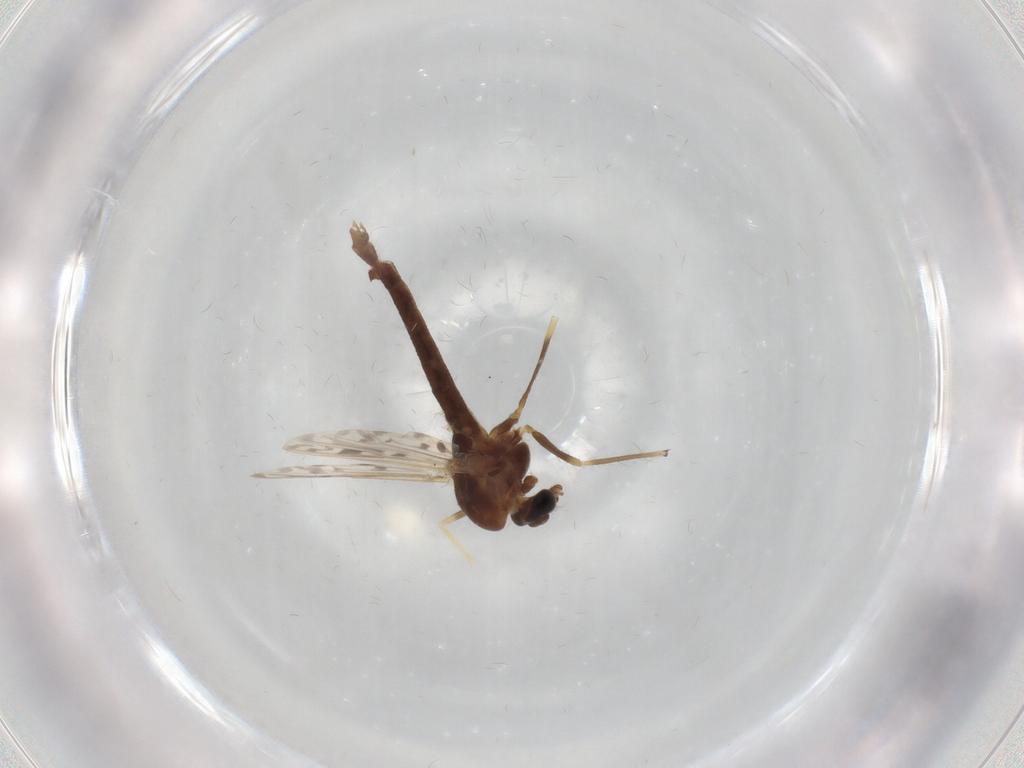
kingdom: Animalia
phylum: Arthropoda
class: Insecta
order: Diptera
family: Chironomidae
